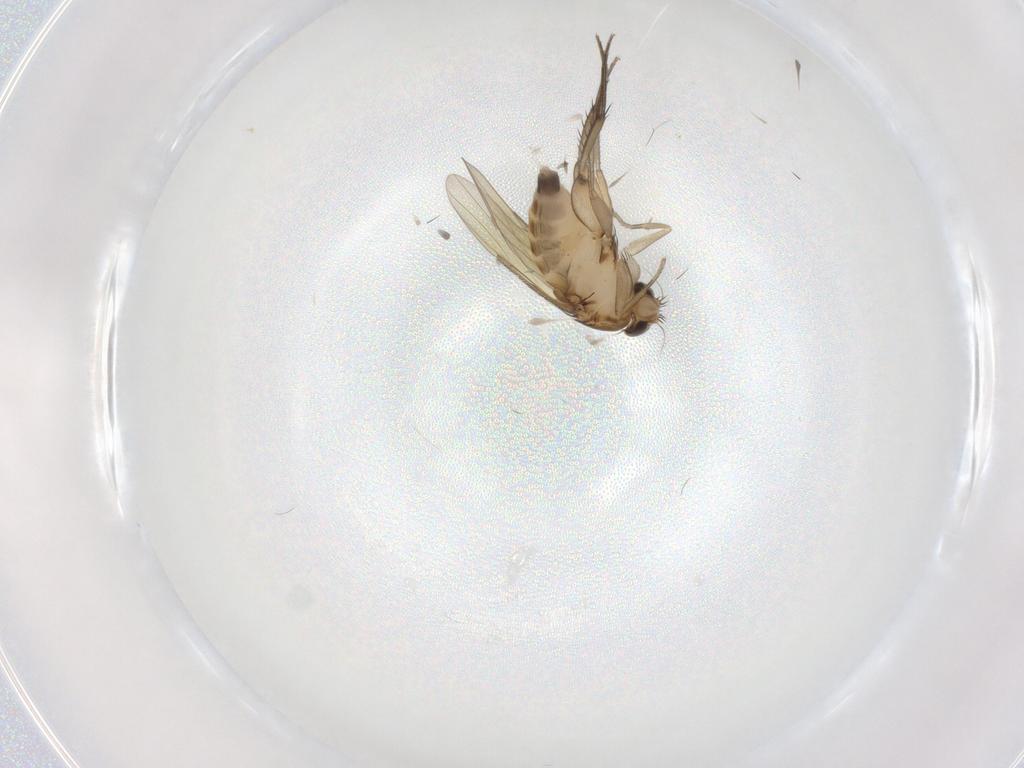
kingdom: Animalia
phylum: Arthropoda
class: Insecta
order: Diptera
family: Phoridae
